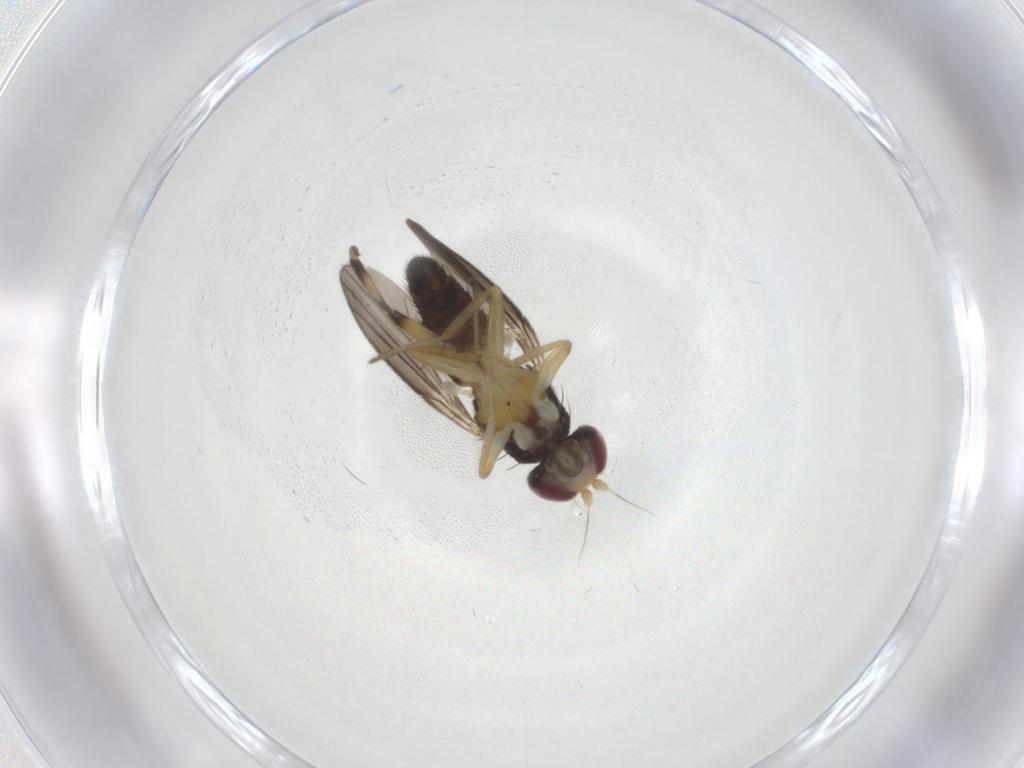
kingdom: Animalia
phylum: Arthropoda
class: Insecta
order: Diptera
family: Clusiidae
